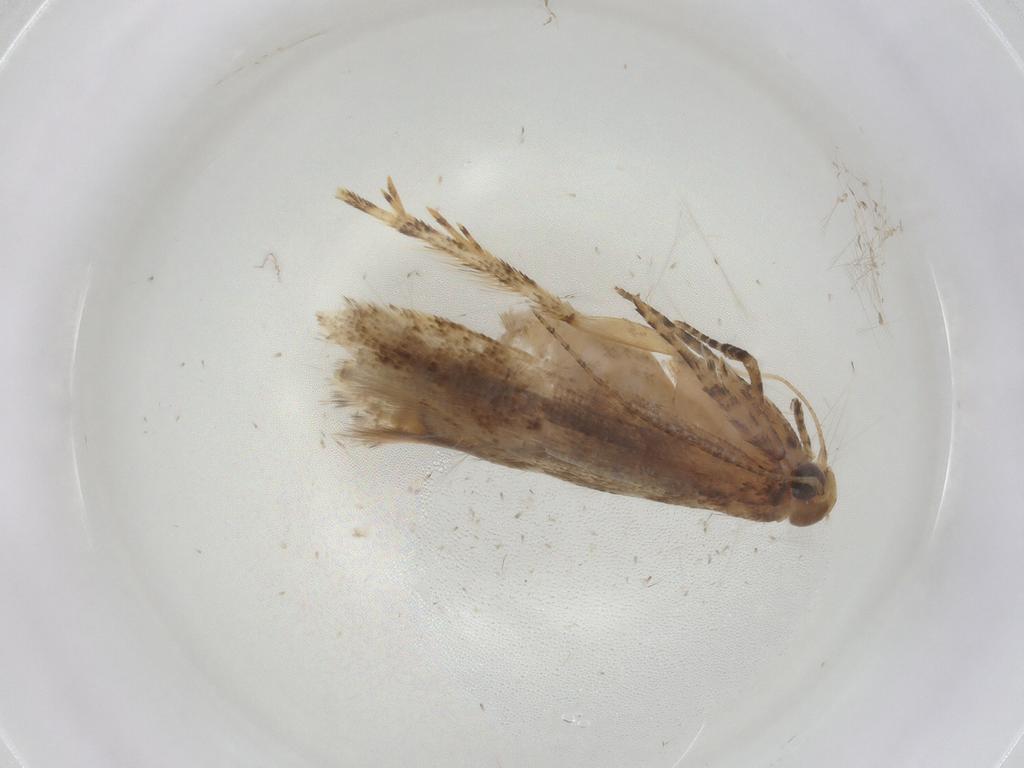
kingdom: Animalia
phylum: Arthropoda
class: Insecta
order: Lepidoptera
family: Gelechiidae
